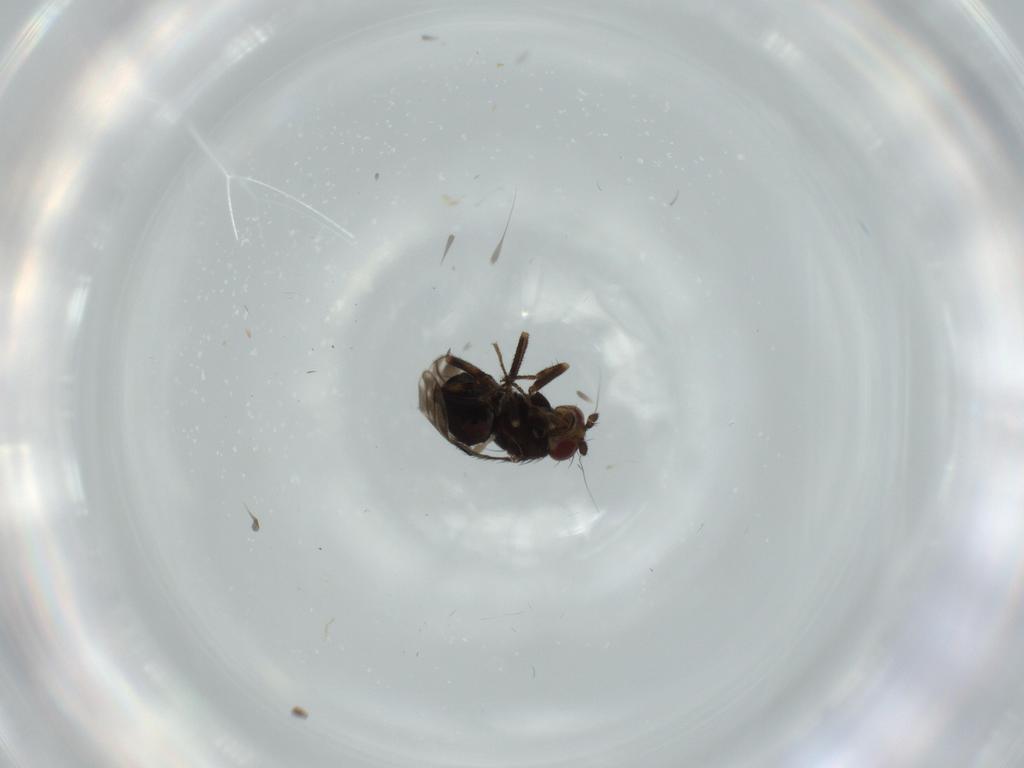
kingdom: Animalia
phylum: Arthropoda
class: Insecta
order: Diptera
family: Sphaeroceridae
